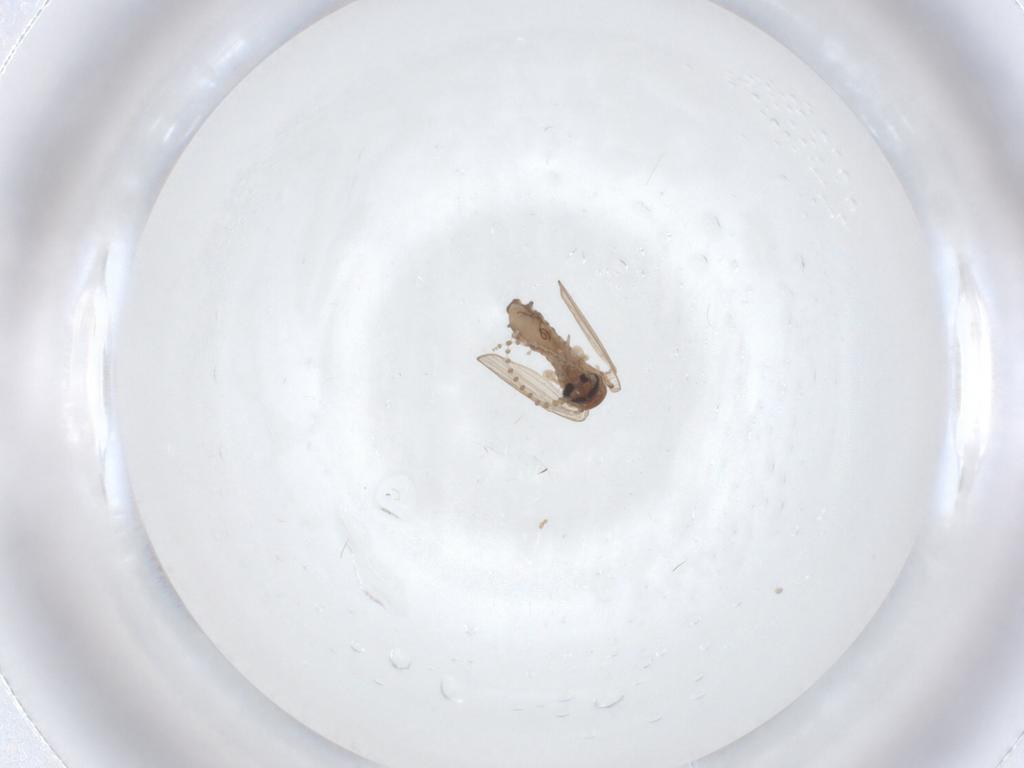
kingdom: Animalia
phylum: Arthropoda
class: Insecta
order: Diptera
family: Psychodidae
